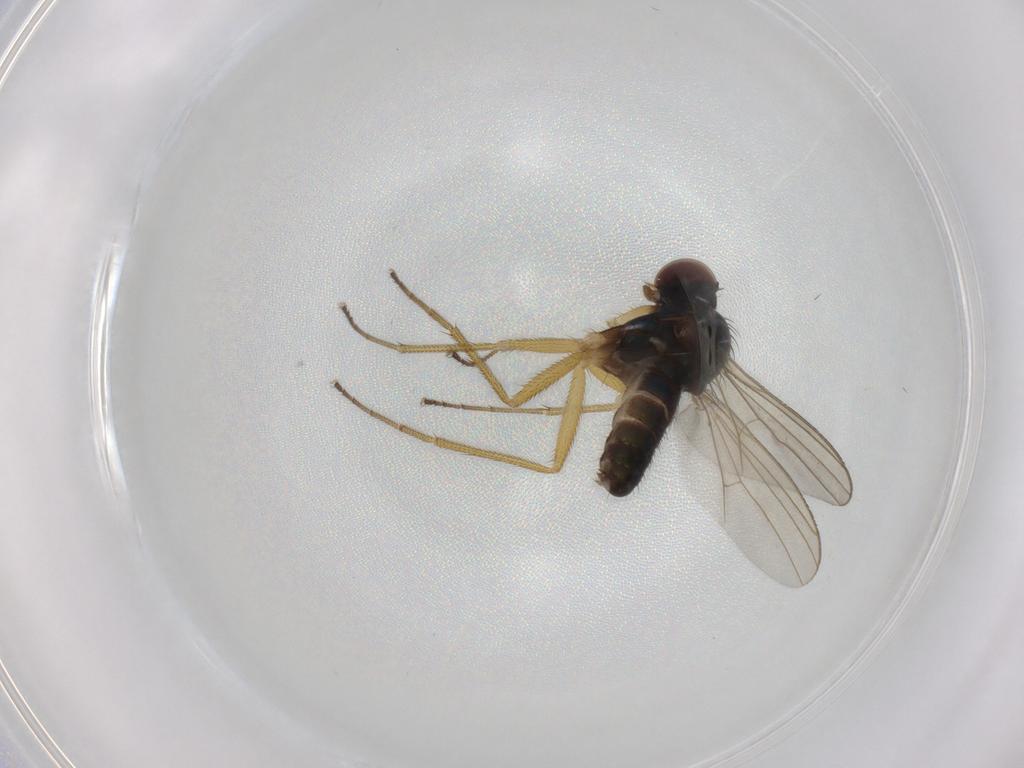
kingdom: Animalia
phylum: Arthropoda
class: Insecta
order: Diptera
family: Dolichopodidae
